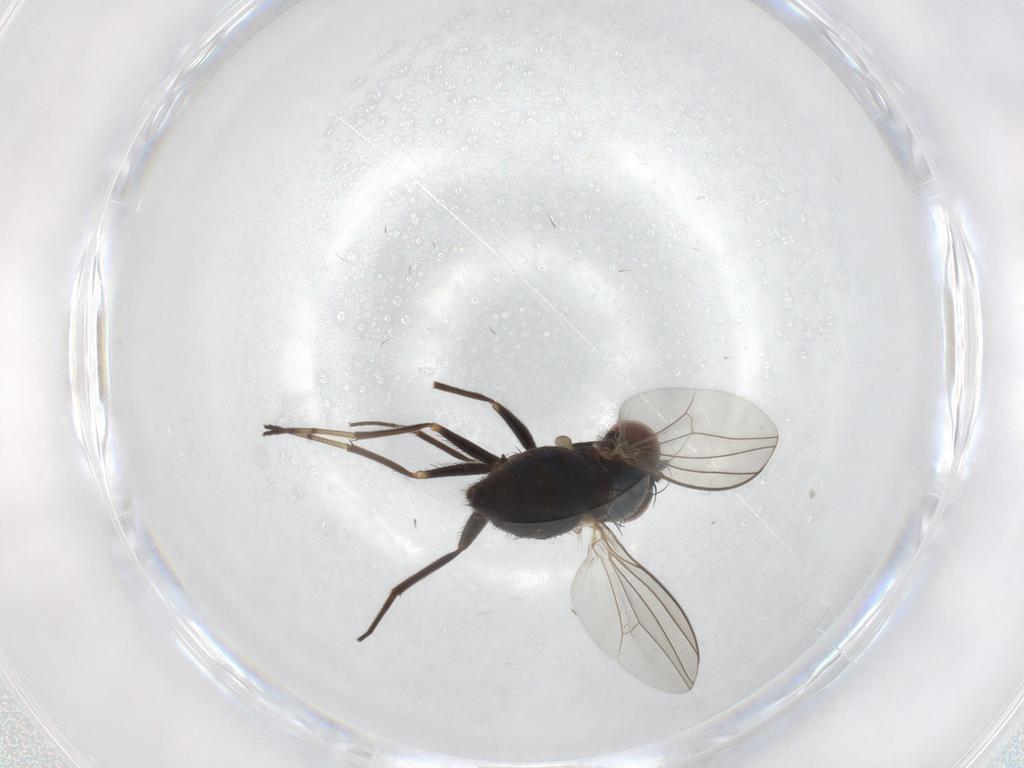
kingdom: Animalia
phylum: Arthropoda
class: Insecta
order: Diptera
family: Dolichopodidae
